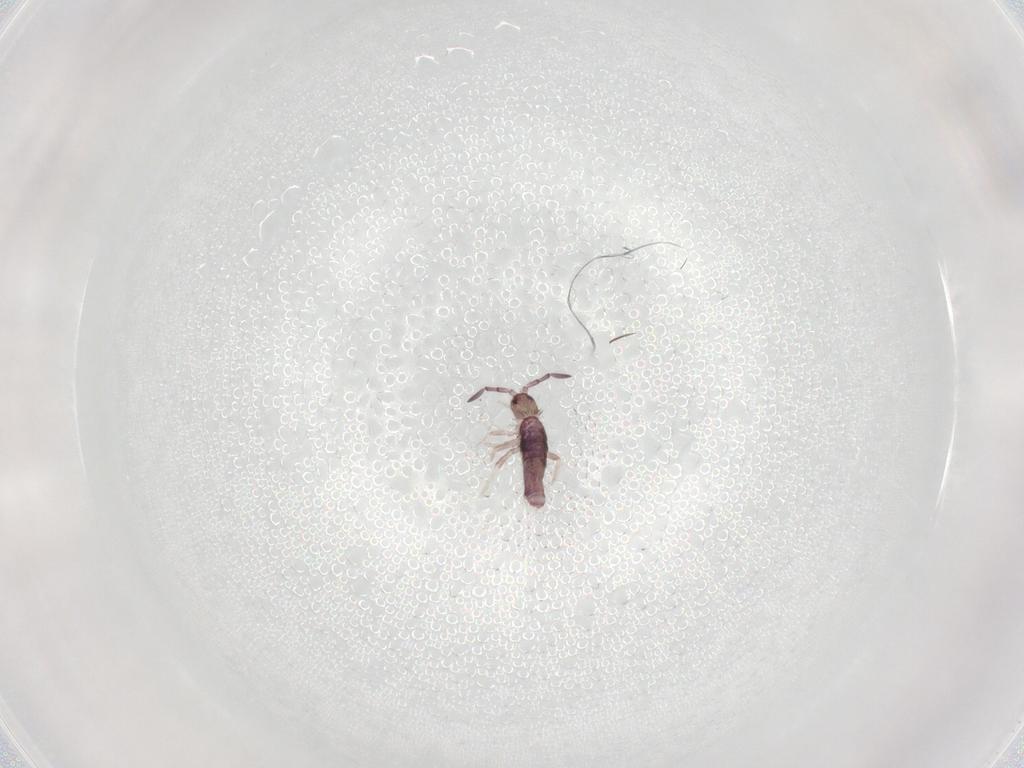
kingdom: Animalia
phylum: Arthropoda
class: Collembola
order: Entomobryomorpha
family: Entomobryidae
